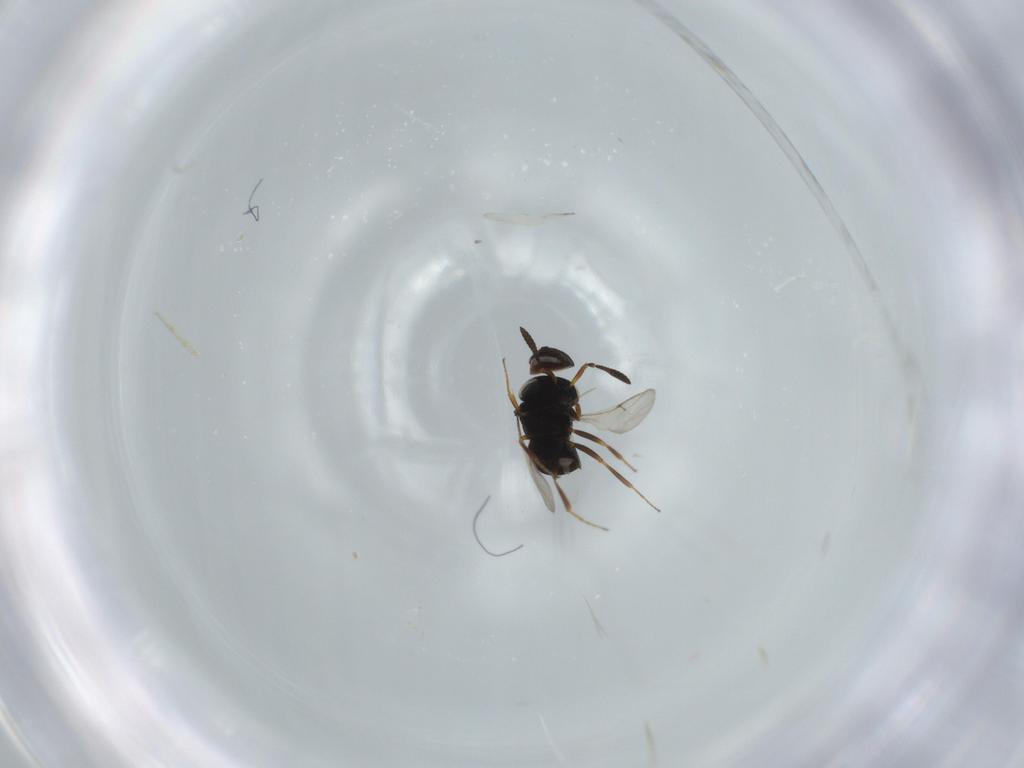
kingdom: Animalia
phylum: Arthropoda
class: Insecta
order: Hymenoptera
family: Scelionidae
